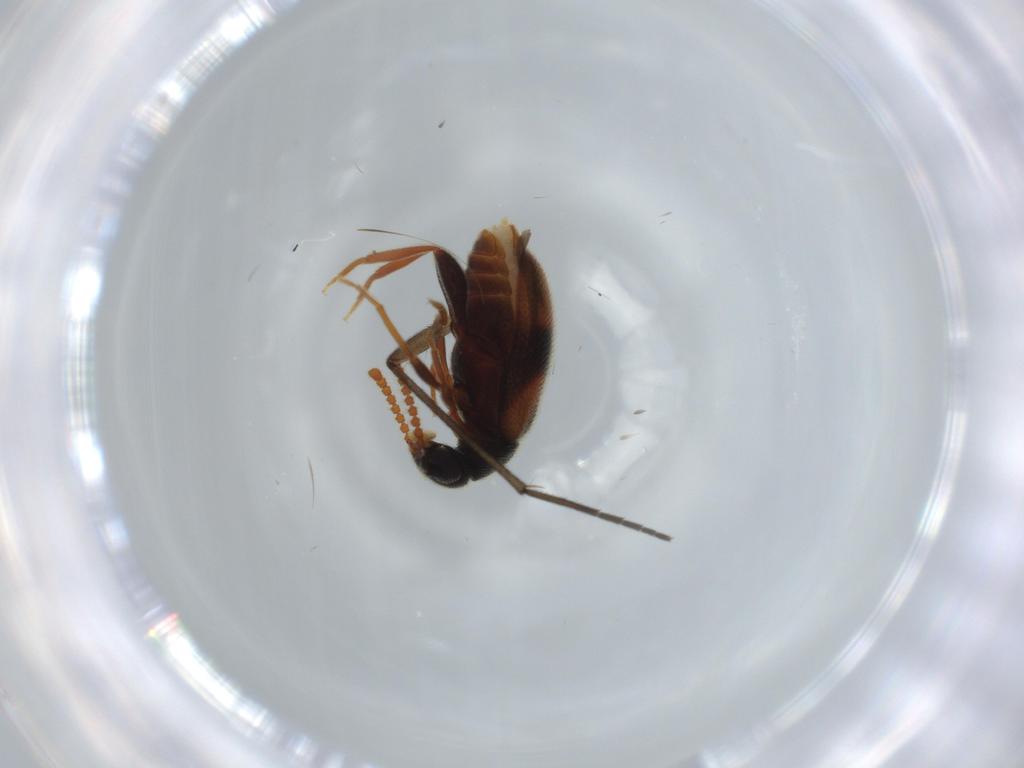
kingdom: Animalia
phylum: Arthropoda
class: Insecta
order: Coleoptera
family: Aderidae
